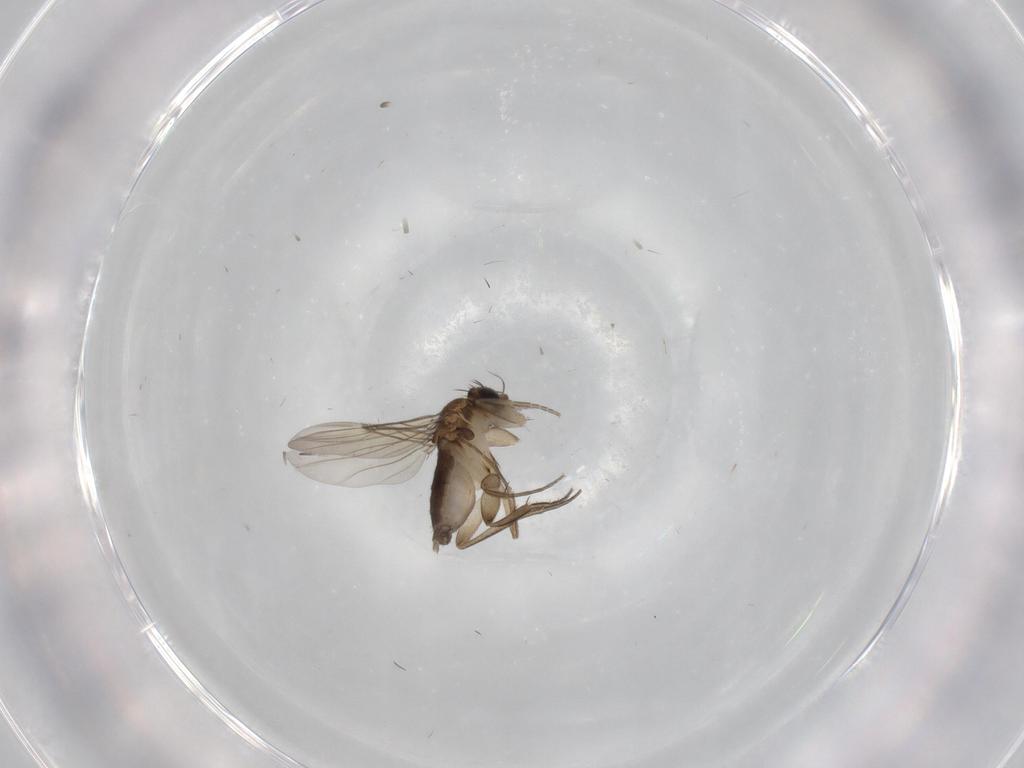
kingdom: Animalia
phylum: Arthropoda
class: Insecta
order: Diptera
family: Phoridae
